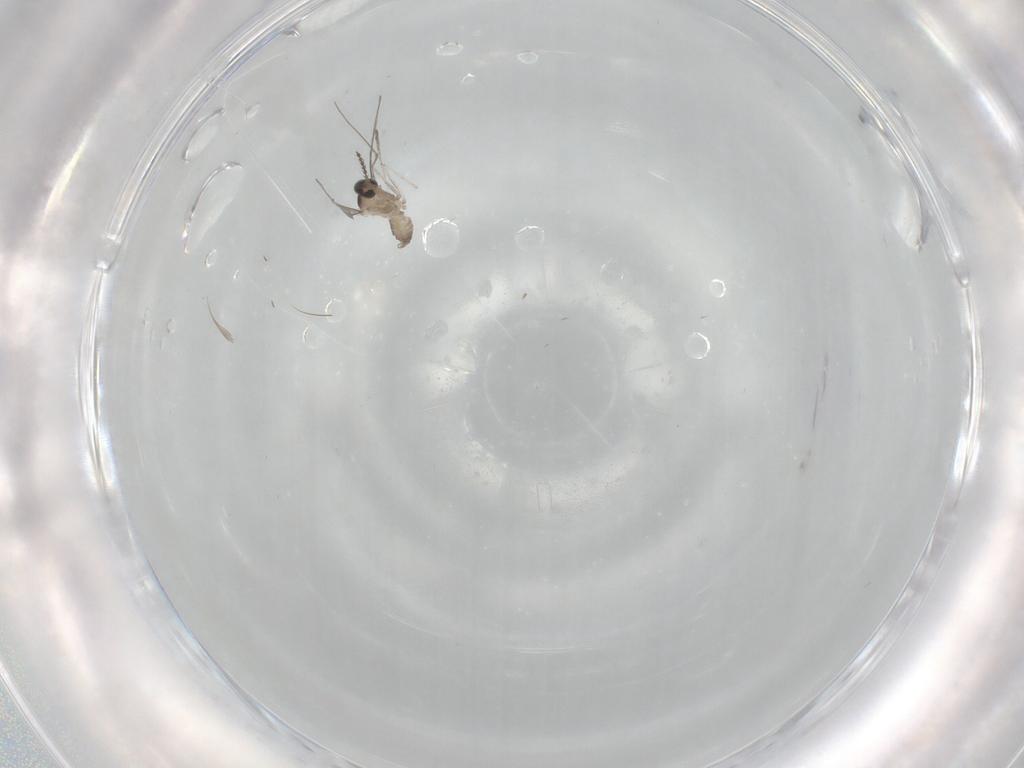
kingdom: Animalia
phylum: Arthropoda
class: Insecta
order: Diptera
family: Cecidomyiidae
